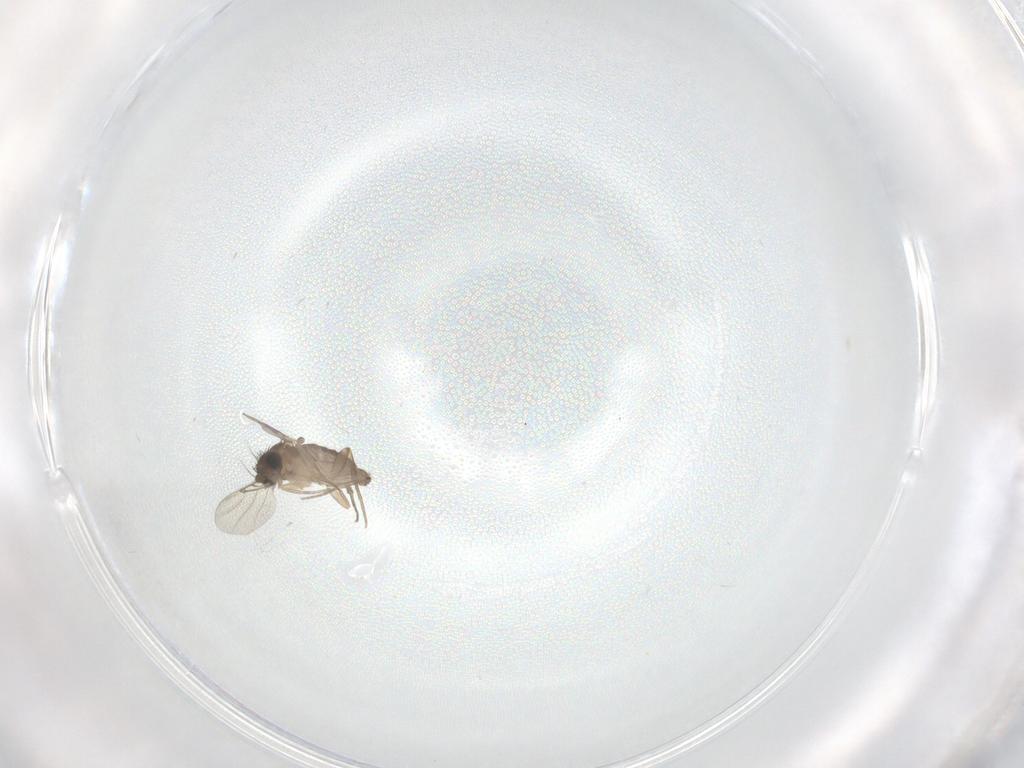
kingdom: Animalia
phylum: Arthropoda
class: Insecta
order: Diptera
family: Phoridae
